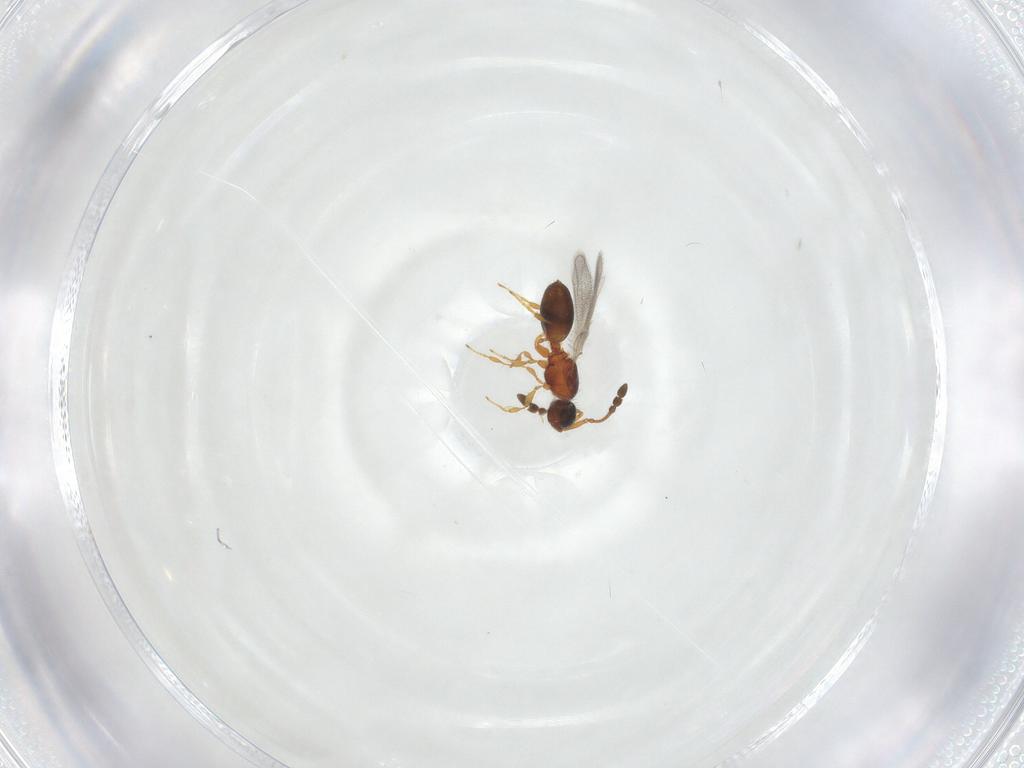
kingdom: Animalia
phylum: Arthropoda
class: Insecta
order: Hymenoptera
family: Diapriidae
